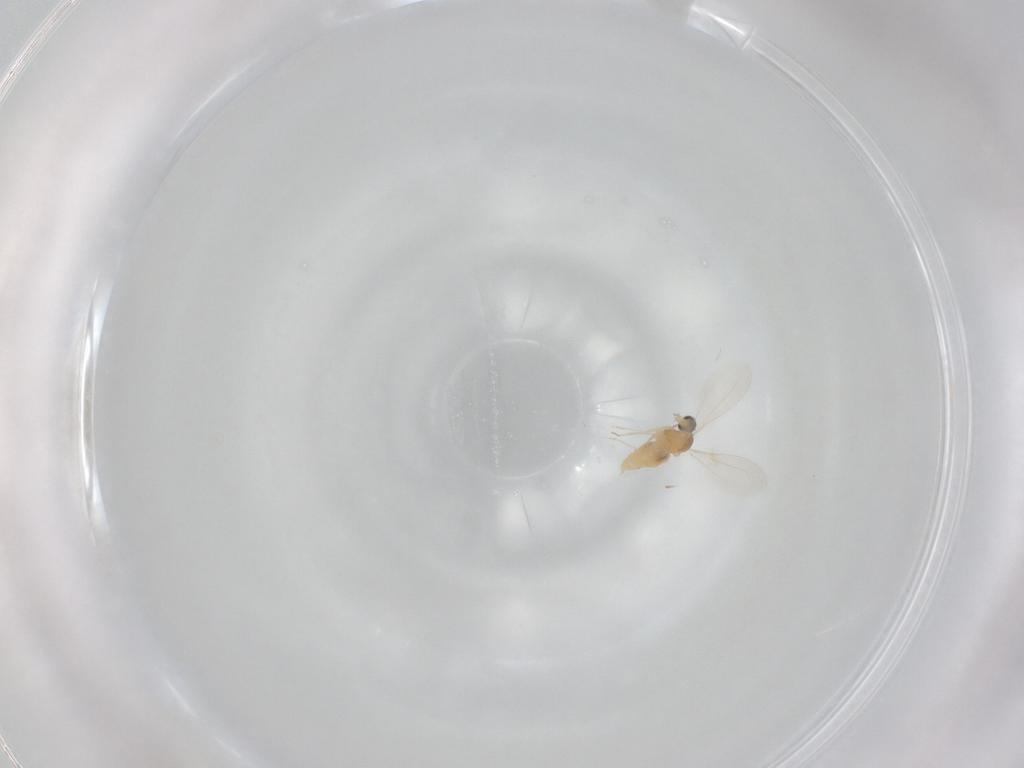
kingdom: Animalia
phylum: Arthropoda
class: Insecta
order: Diptera
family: Cecidomyiidae
